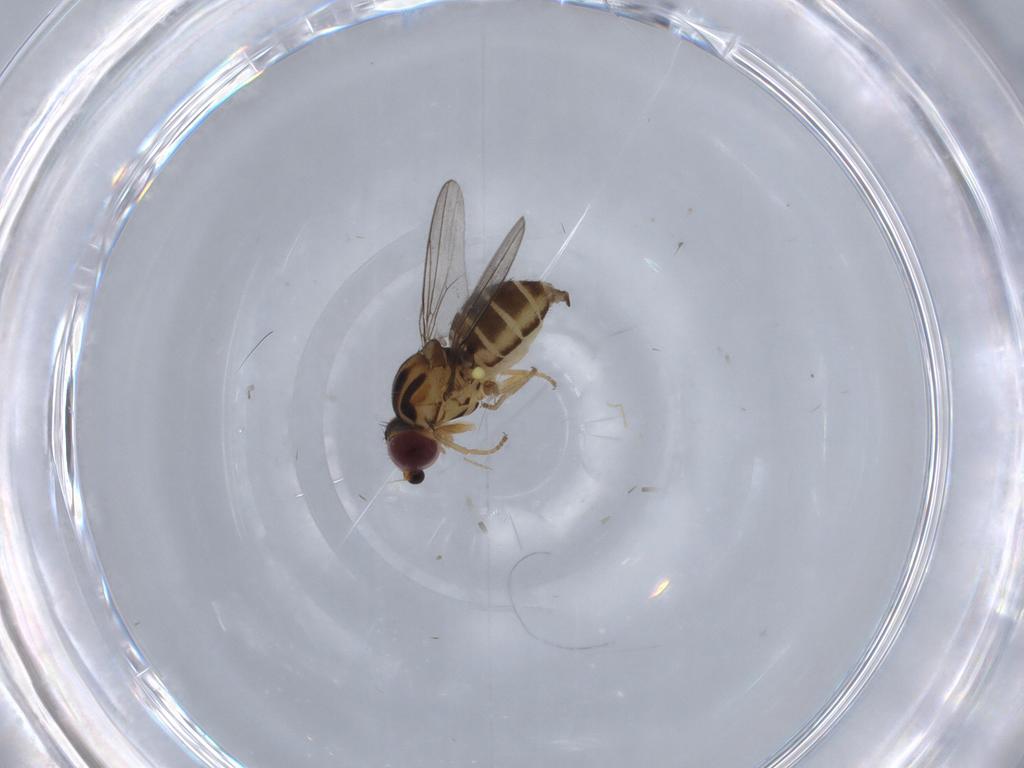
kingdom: Animalia
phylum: Arthropoda
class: Insecta
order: Diptera
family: Chloropidae
